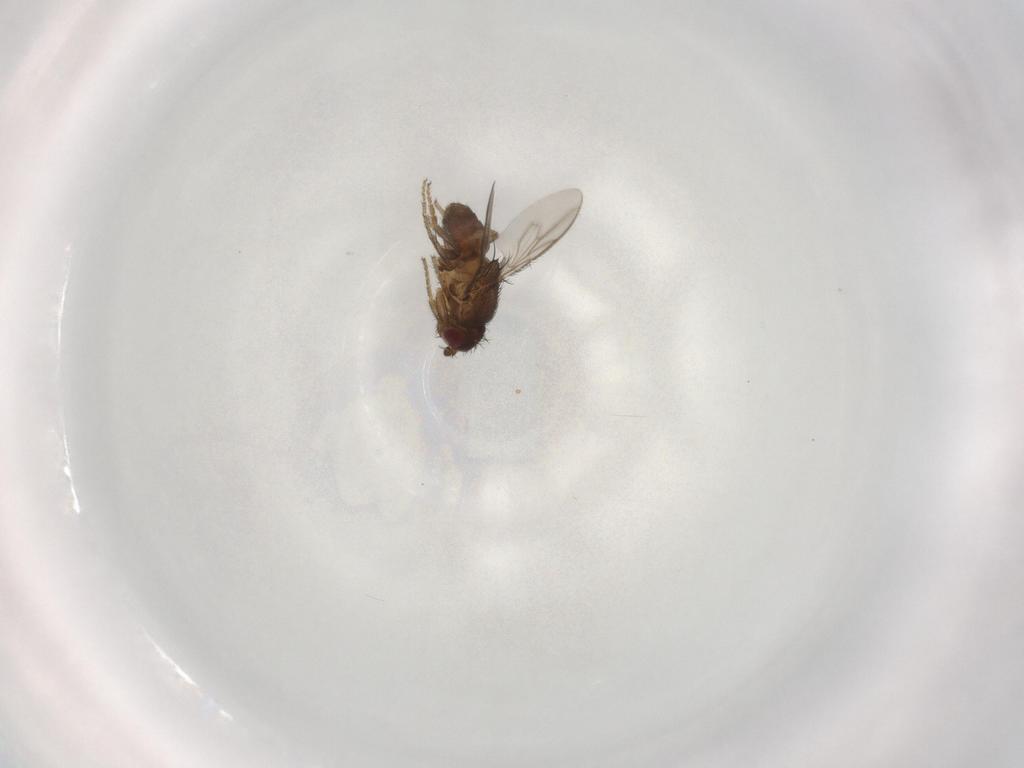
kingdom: Animalia
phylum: Arthropoda
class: Insecta
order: Diptera
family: Sphaeroceridae
